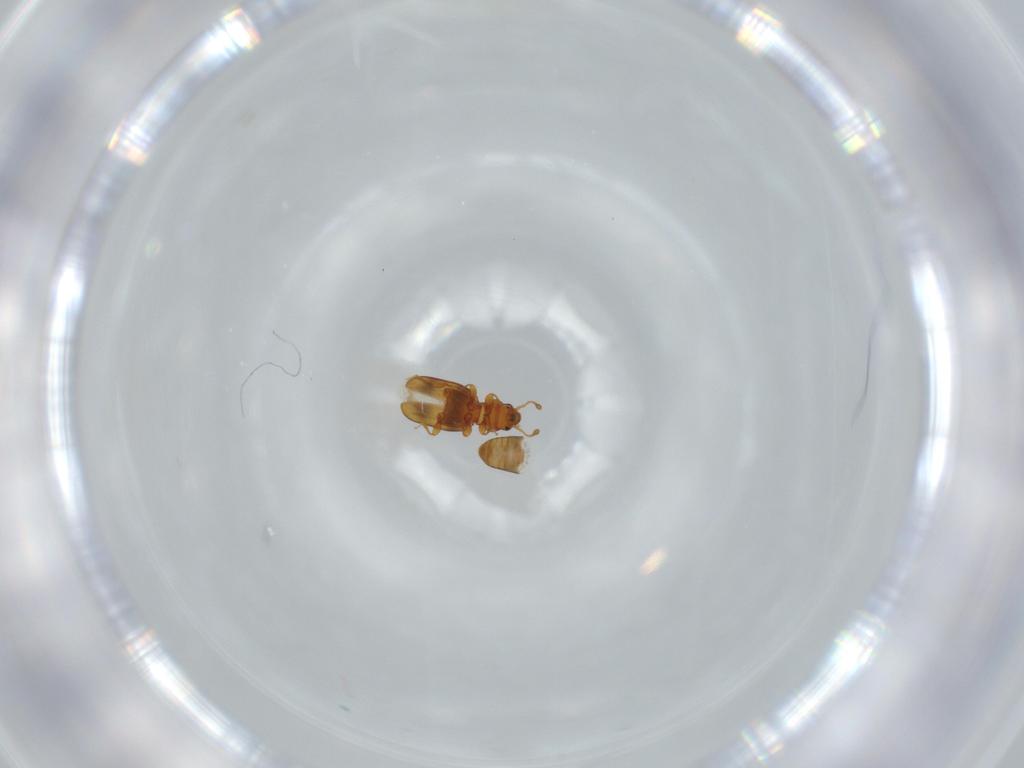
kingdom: Animalia
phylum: Arthropoda
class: Insecta
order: Coleoptera
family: Monotomidae
